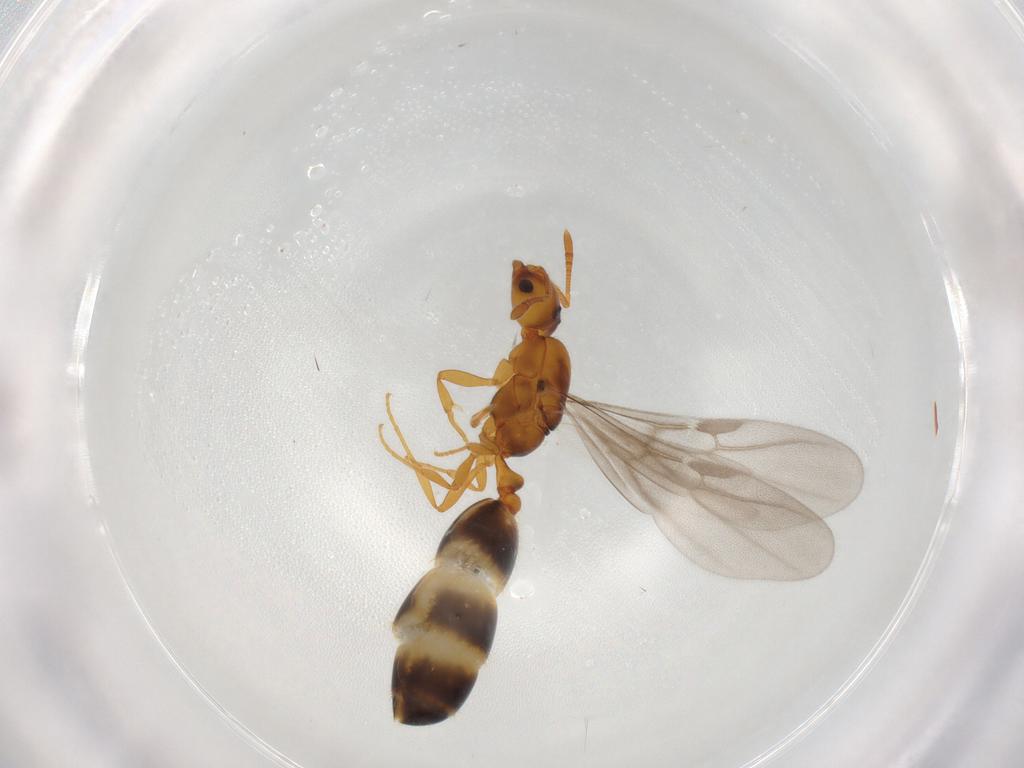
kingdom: Animalia
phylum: Arthropoda
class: Insecta
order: Hymenoptera
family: Formicidae
